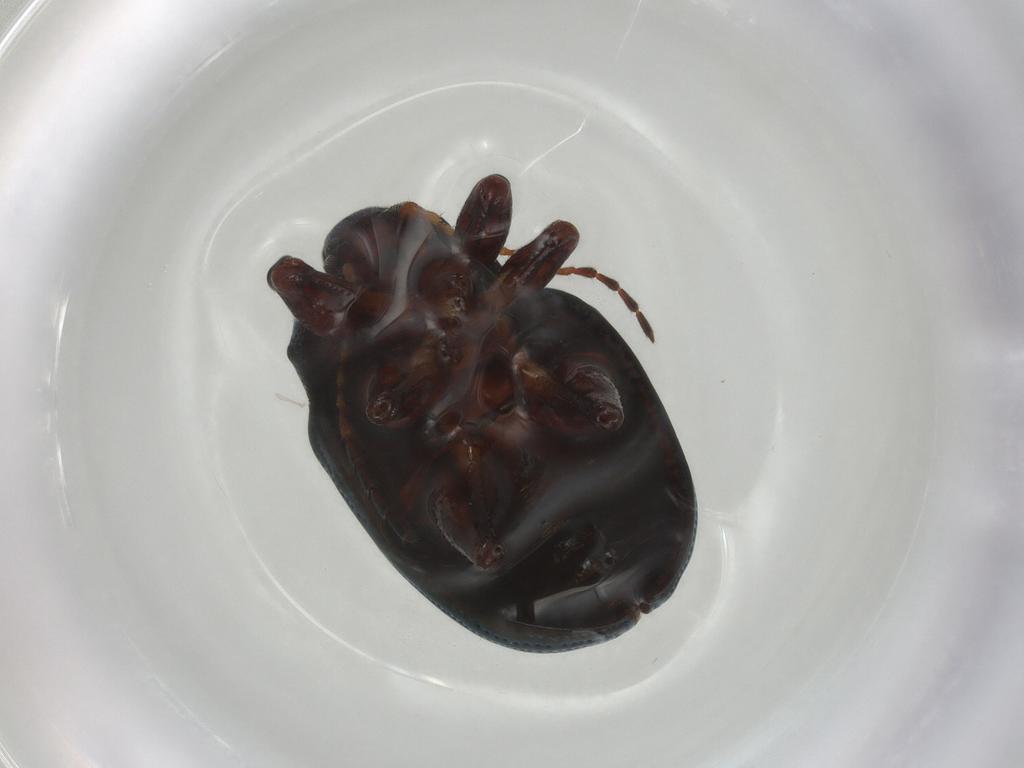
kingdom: Animalia
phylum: Arthropoda
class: Insecta
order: Coleoptera
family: Chrysomelidae
